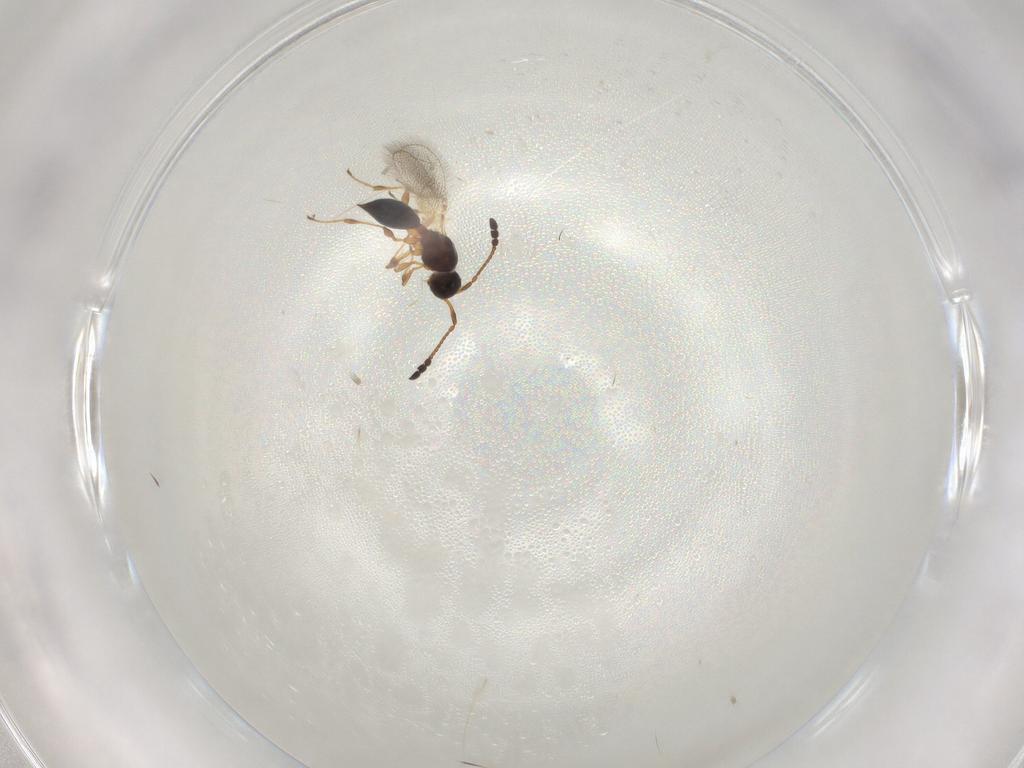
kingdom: Animalia
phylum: Arthropoda
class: Insecta
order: Hymenoptera
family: Diapriidae
